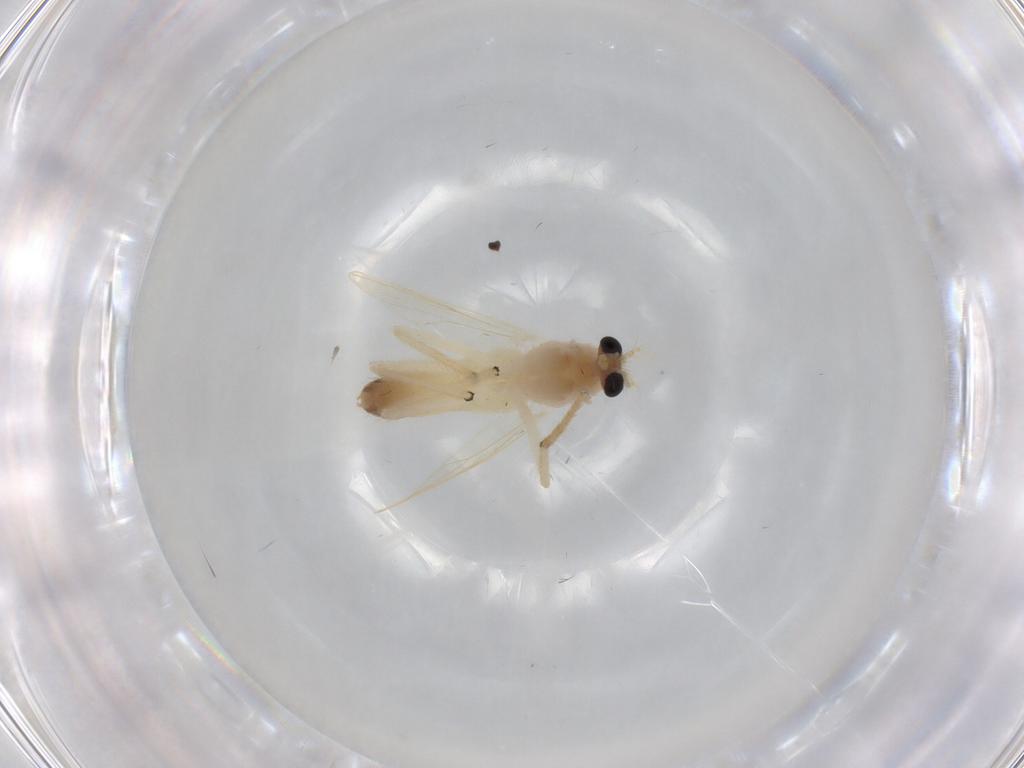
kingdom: Animalia
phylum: Arthropoda
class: Insecta
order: Diptera
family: Chironomidae
